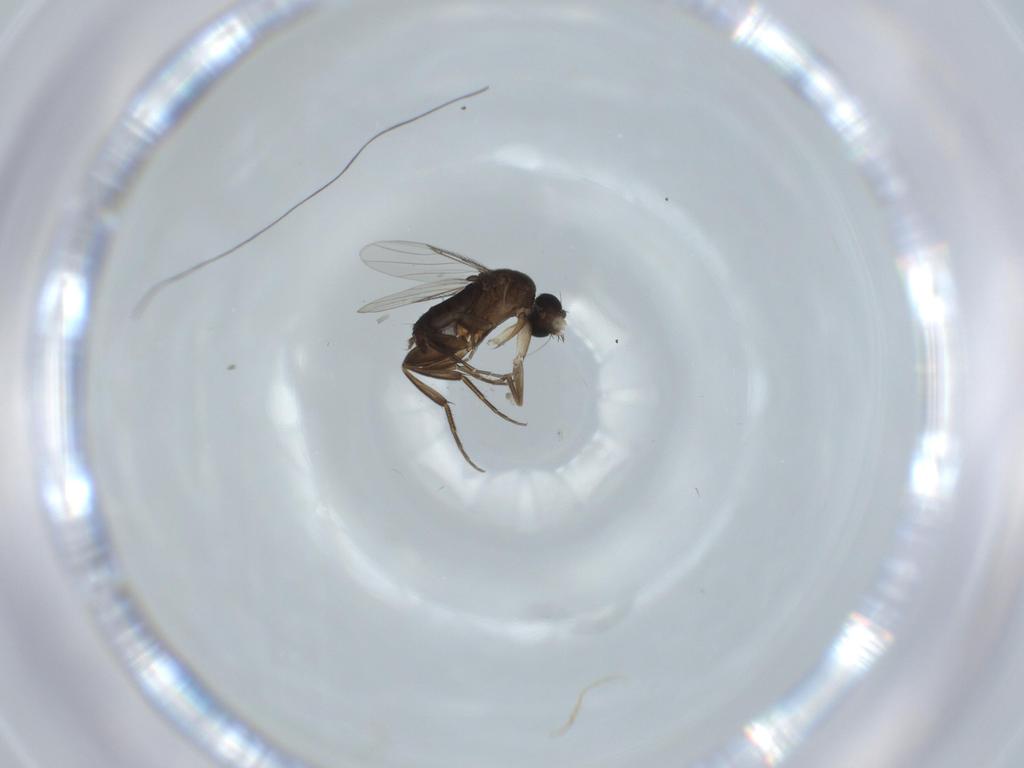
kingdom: Animalia
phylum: Arthropoda
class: Insecta
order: Diptera
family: Phoridae
